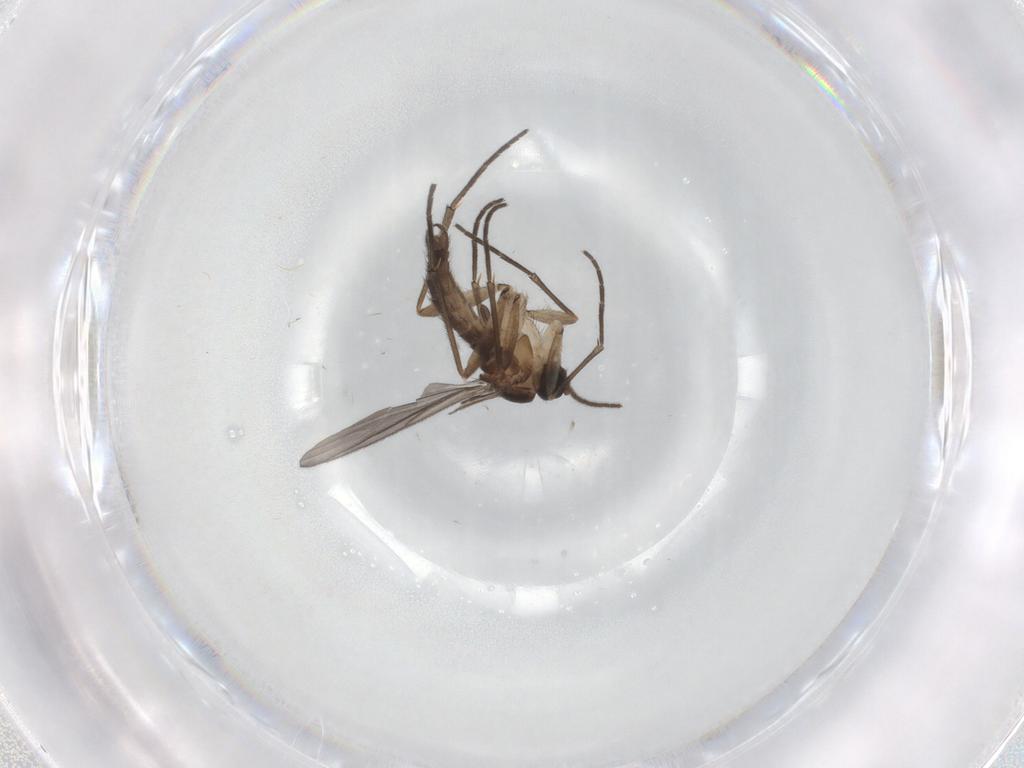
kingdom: Animalia
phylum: Arthropoda
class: Insecta
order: Diptera
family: Sciaridae
